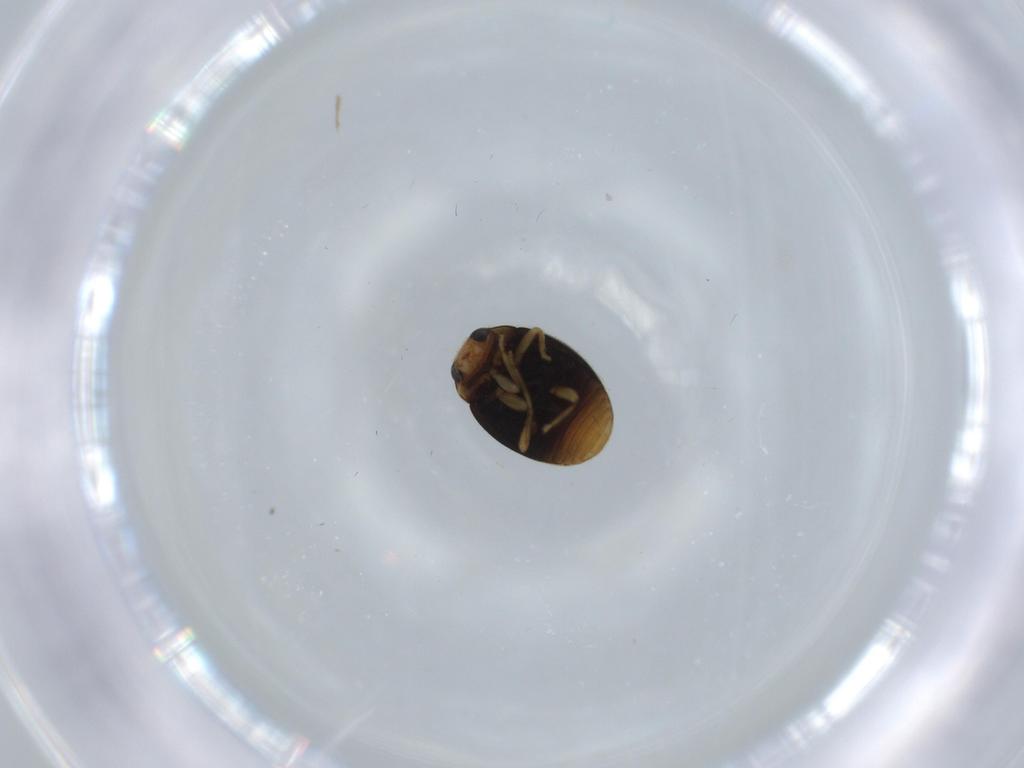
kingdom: Animalia
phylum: Arthropoda
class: Insecta
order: Coleoptera
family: Coccinellidae
